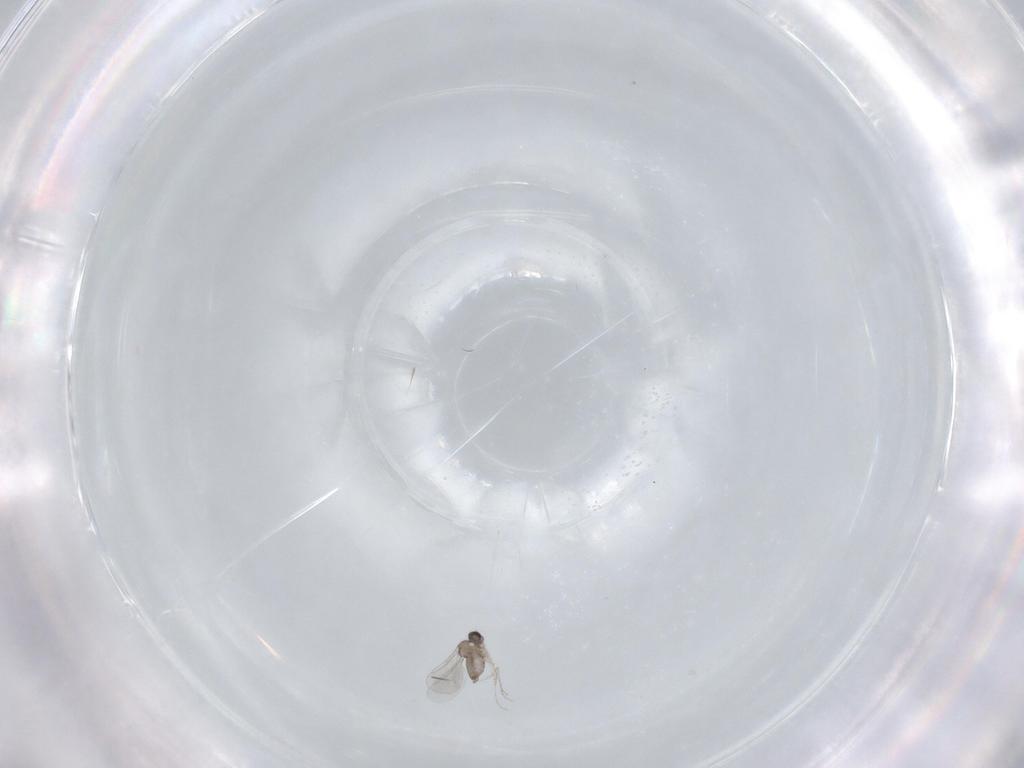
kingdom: Animalia
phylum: Arthropoda
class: Insecta
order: Diptera
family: Cecidomyiidae
